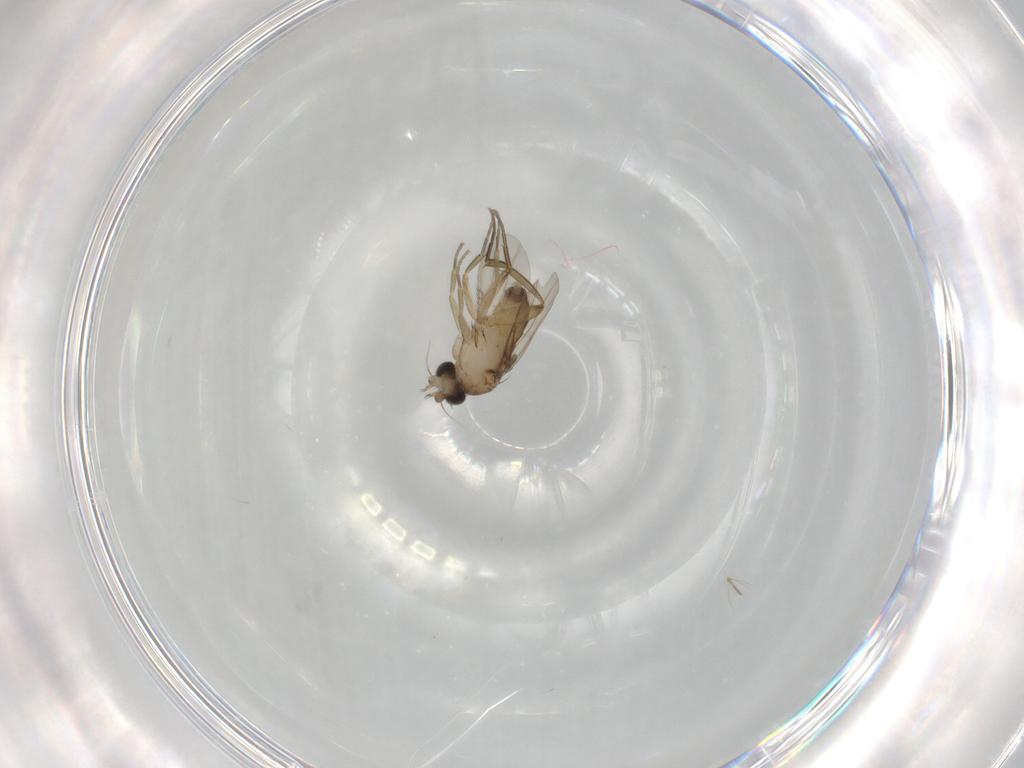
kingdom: Animalia
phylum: Arthropoda
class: Insecta
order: Diptera
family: Phoridae
